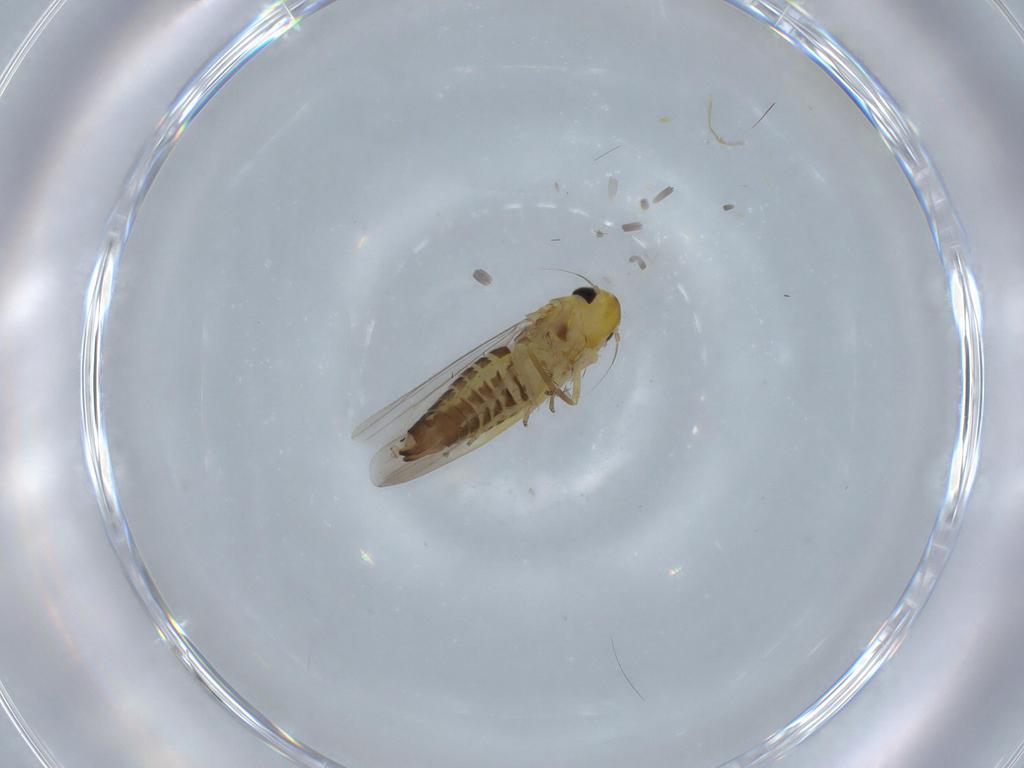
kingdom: Animalia
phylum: Arthropoda
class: Insecta
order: Hemiptera
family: Cicadellidae
